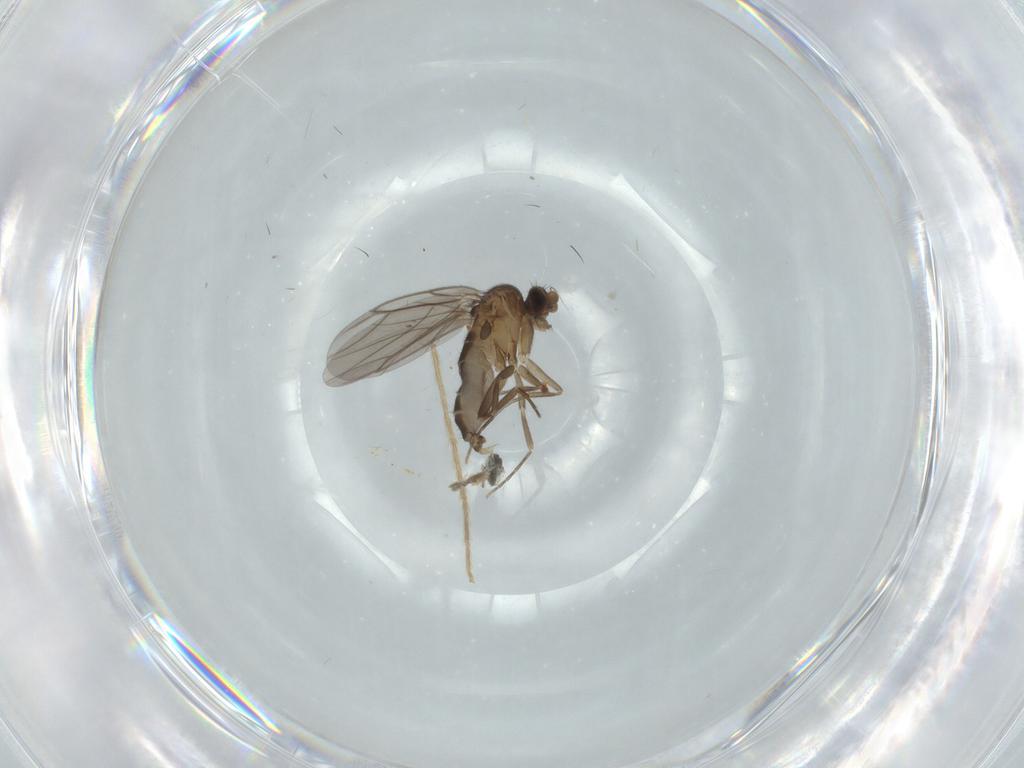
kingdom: Animalia
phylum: Arthropoda
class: Insecta
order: Diptera
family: Chironomidae
